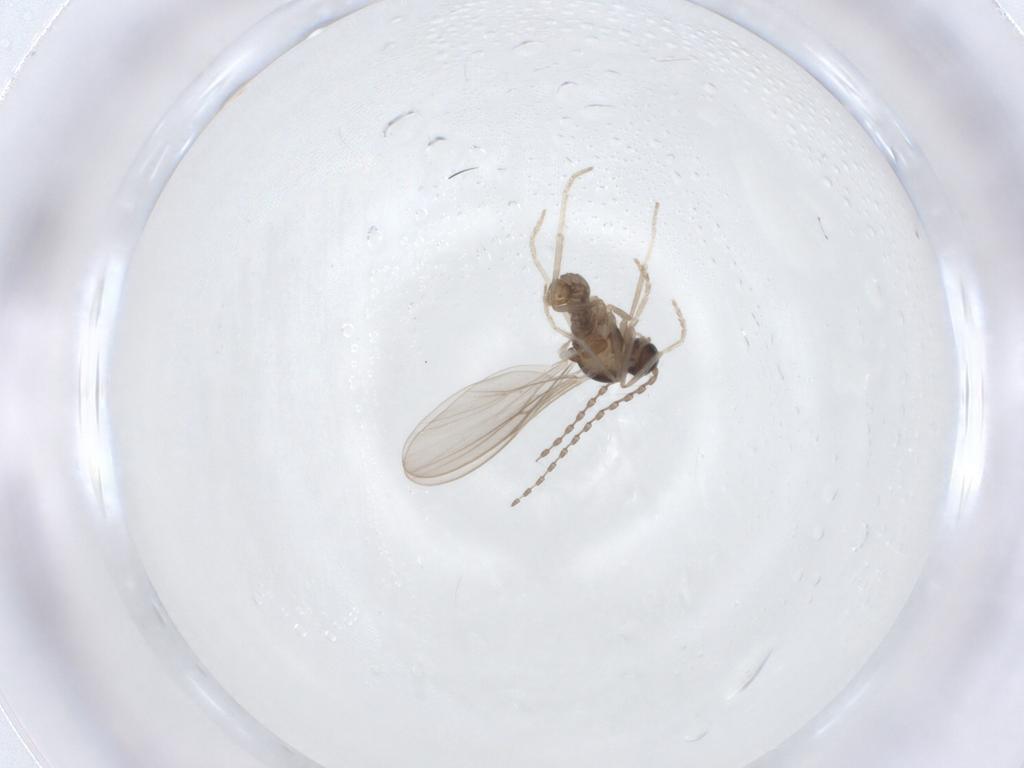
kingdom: Animalia
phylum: Arthropoda
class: Insecta
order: Diptera
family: Cecidomyiidae
